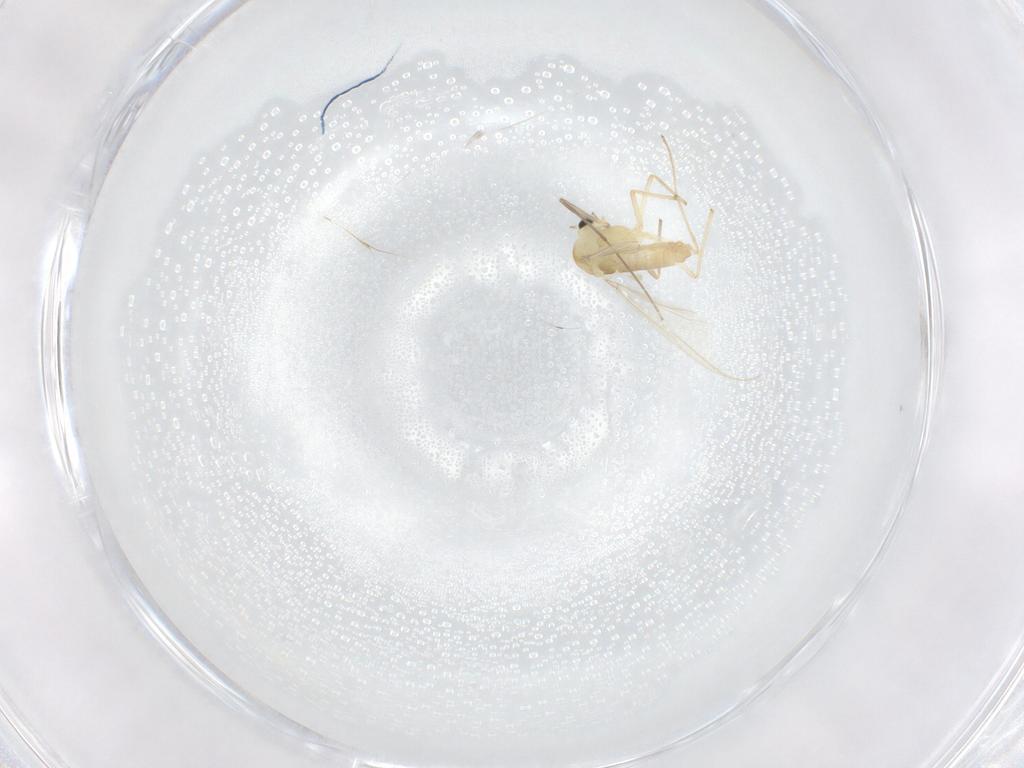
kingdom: Animalia
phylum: Arthropoda
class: Insecta
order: Diptera
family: Chironomidae
